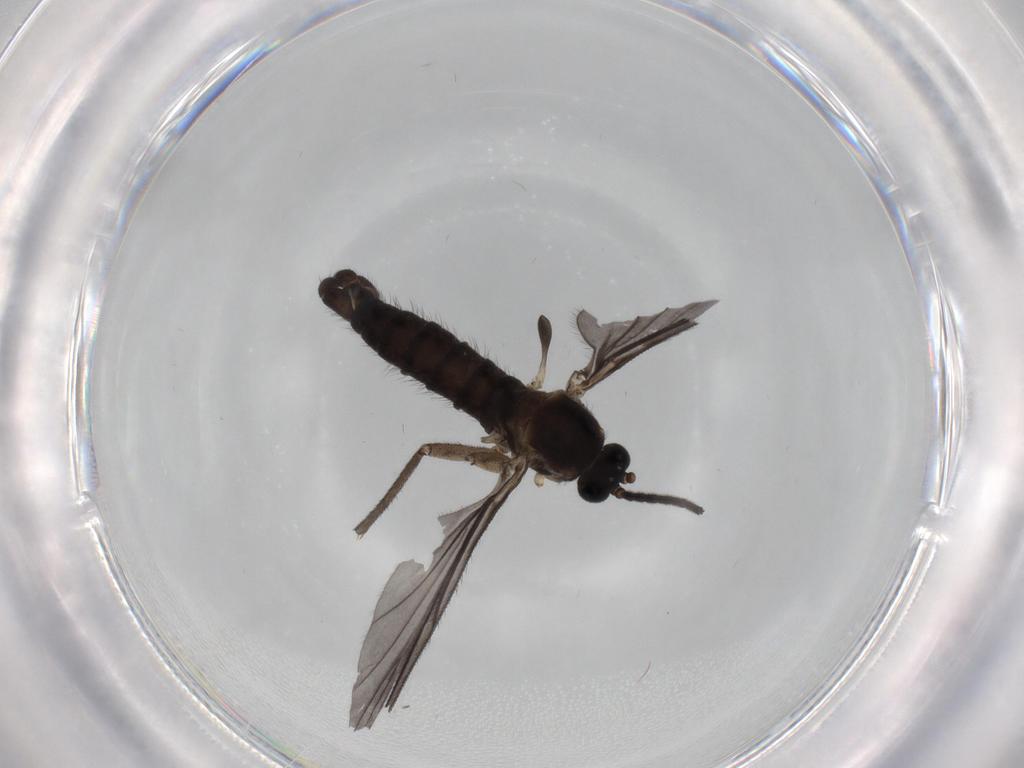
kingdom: Animalia
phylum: Arthropoda
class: Insecta
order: Diptera
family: Sciaridae
